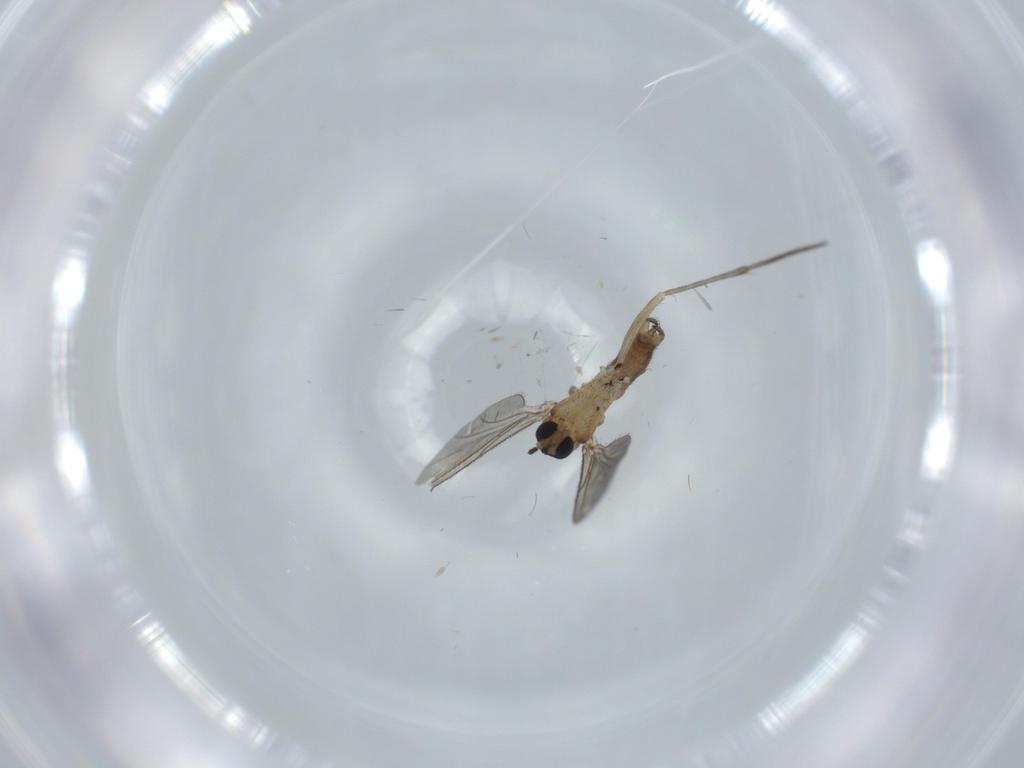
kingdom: Animalia
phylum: Arthropoda
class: Insecta
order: Diptera
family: Sciaridae
